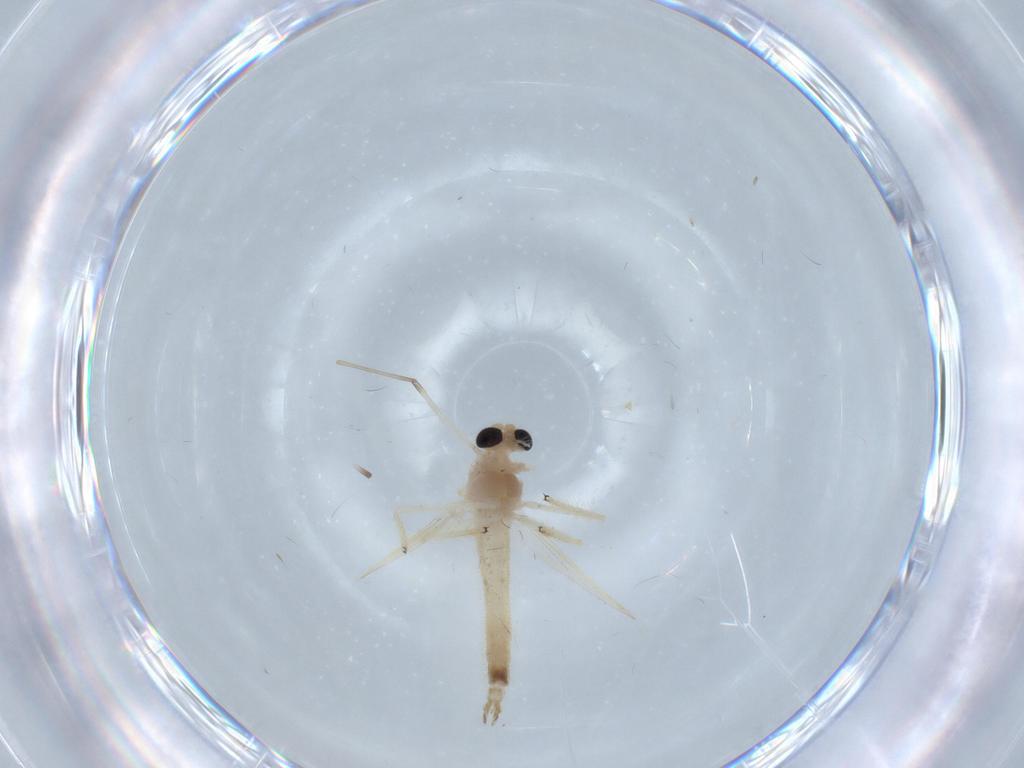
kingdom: Animalia
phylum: Arthropoda
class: Insecta
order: Diptera
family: Chironomidae
